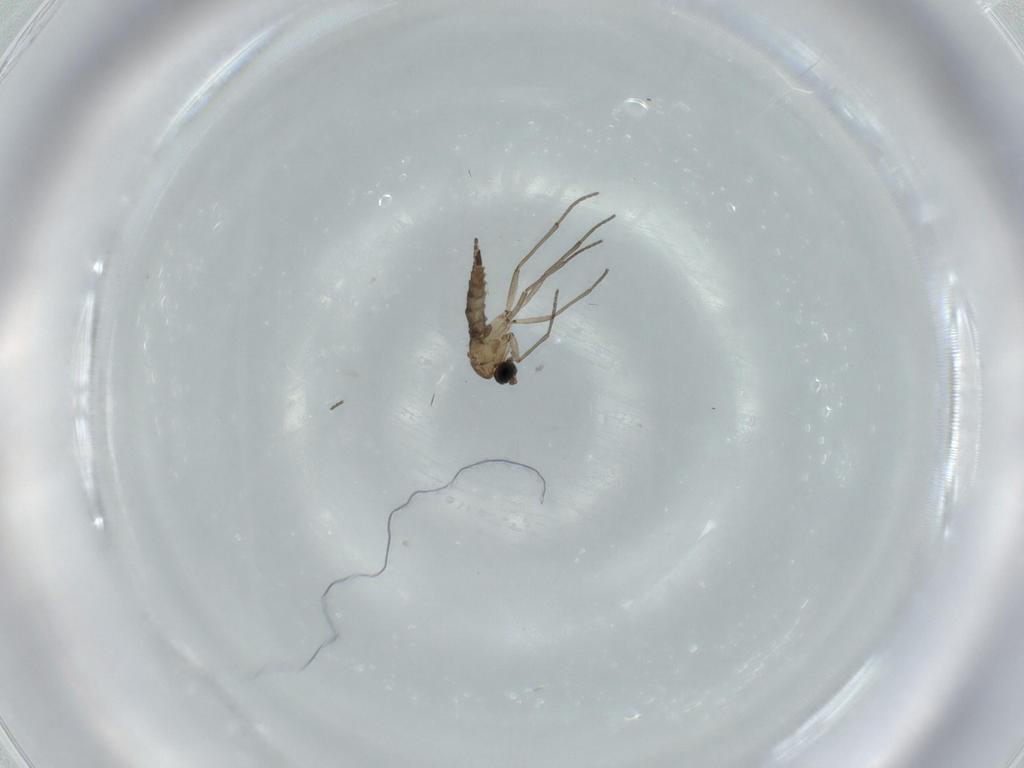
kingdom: Animalia
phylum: Arthropoda
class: Insecta
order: Diptera
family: Sciaridae
